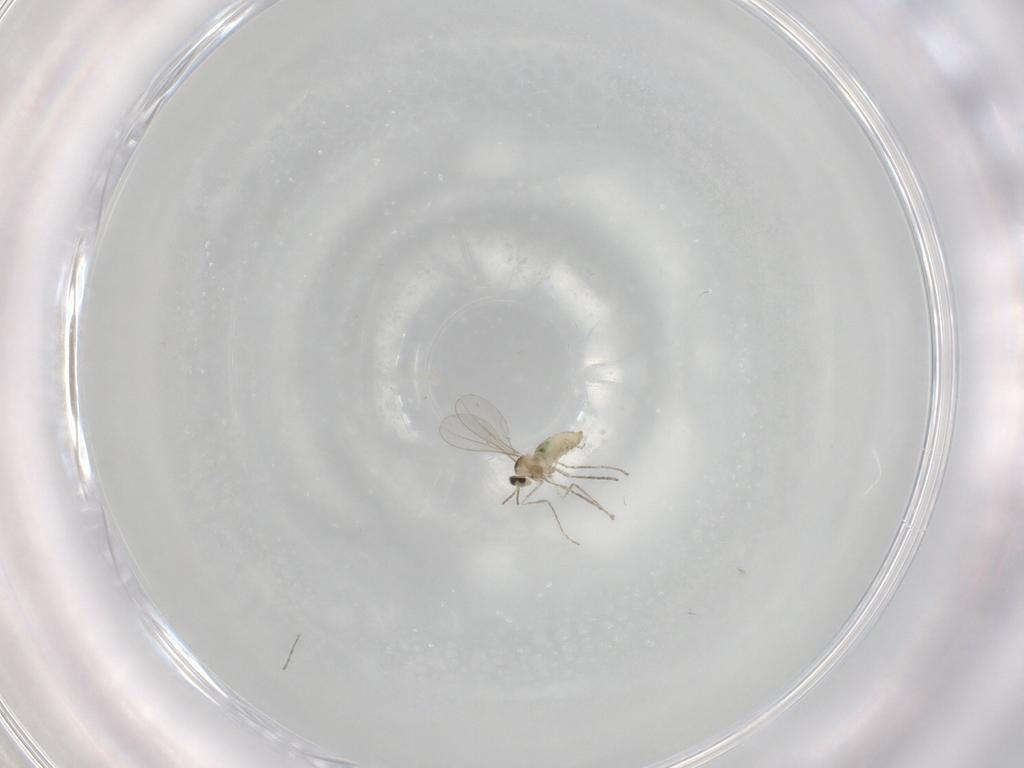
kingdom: Animalia
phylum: Arthropoda
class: Insecta
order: Diptera
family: Cecidomyiidae
